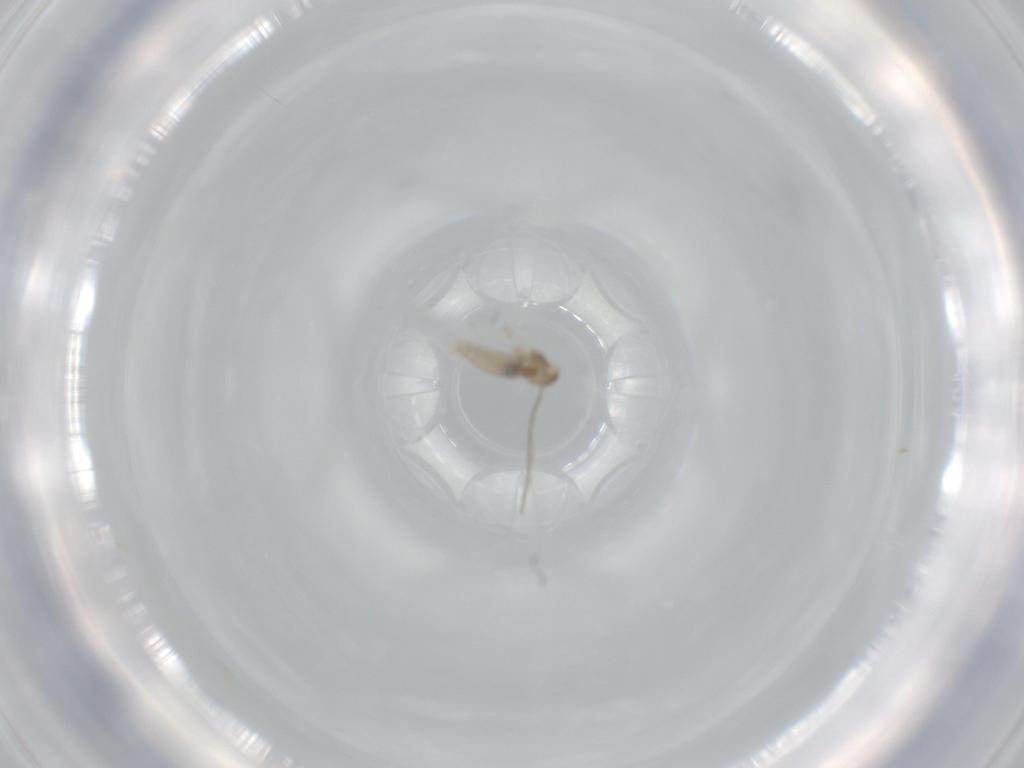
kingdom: Animalia
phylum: Arthropoda
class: Insecta
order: Diptera
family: Cecidomyiidae
